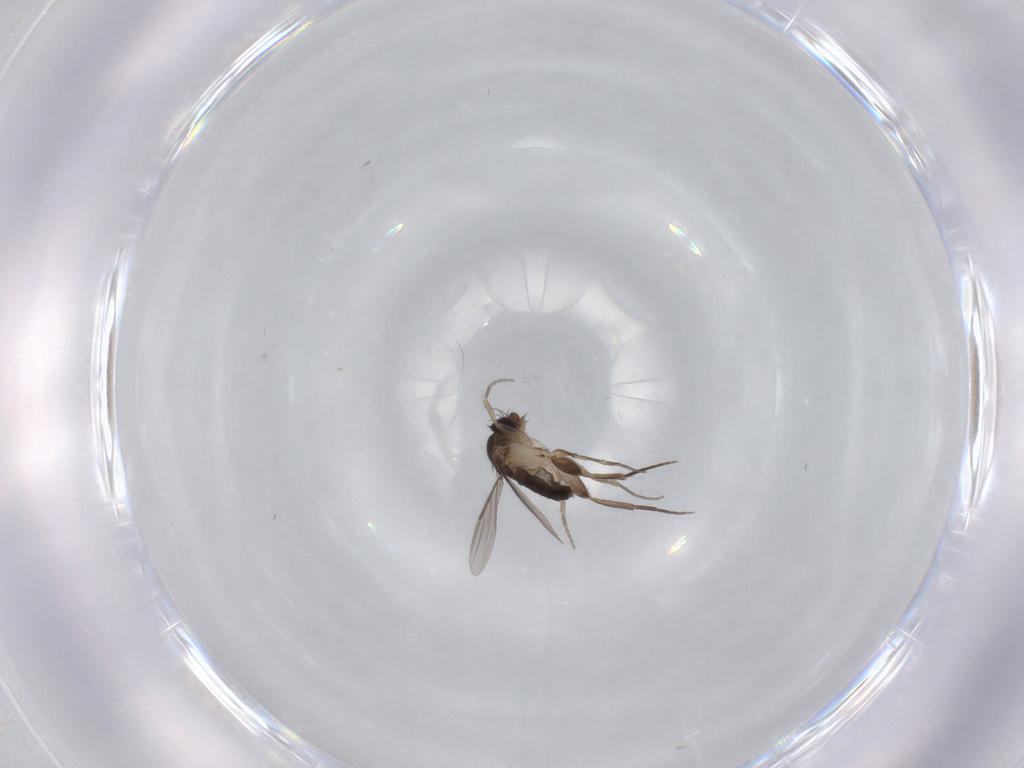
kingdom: Animalia
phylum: Arthropoda
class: Insecta
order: Diptera
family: Phoridae
